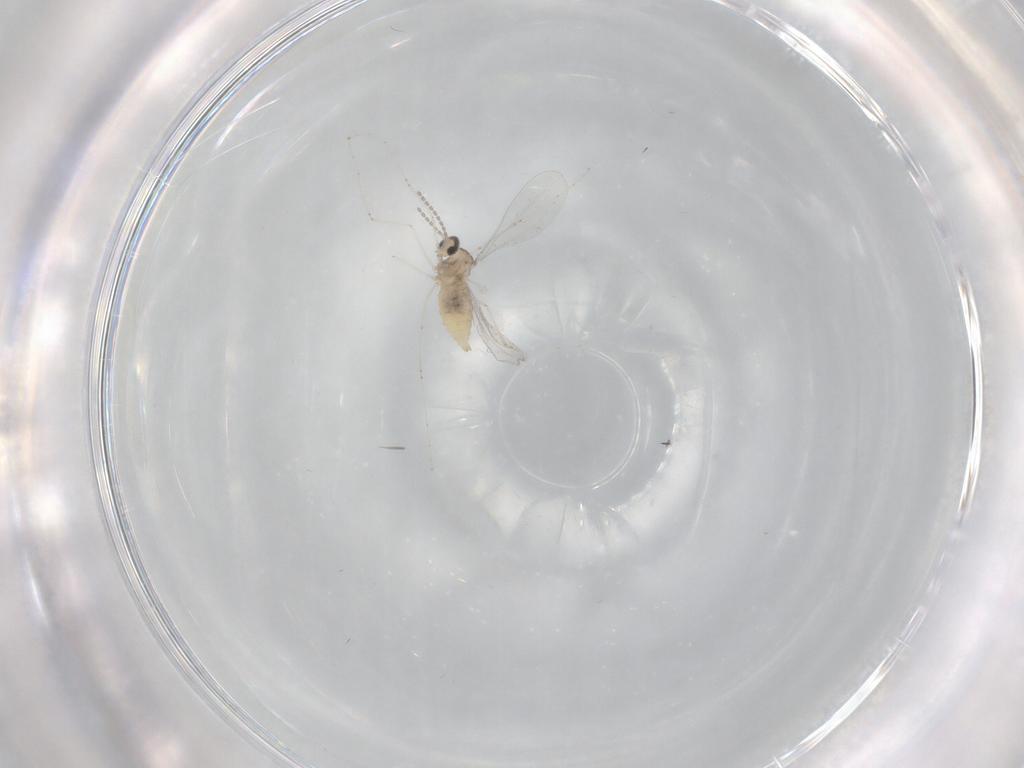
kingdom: Animalia
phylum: Arthropoda
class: Insecta
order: Diptera
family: Cecidomyiidae
